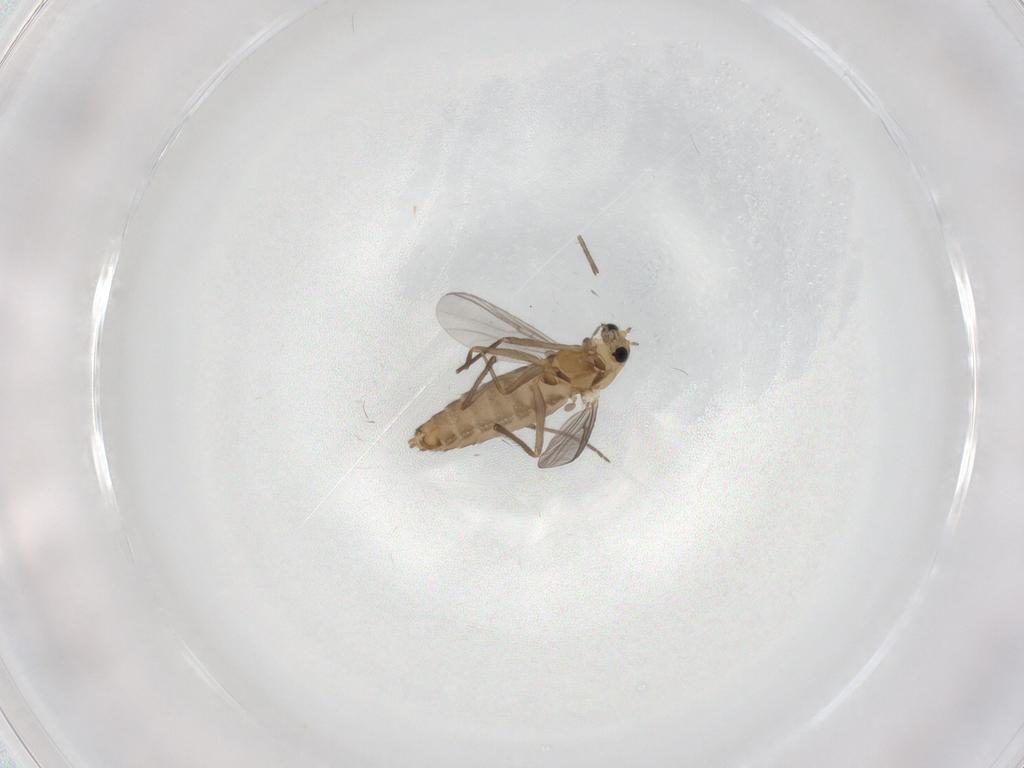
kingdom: Animalia
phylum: Arthropoda
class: Insecta
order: Diptera
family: Chironomidae
